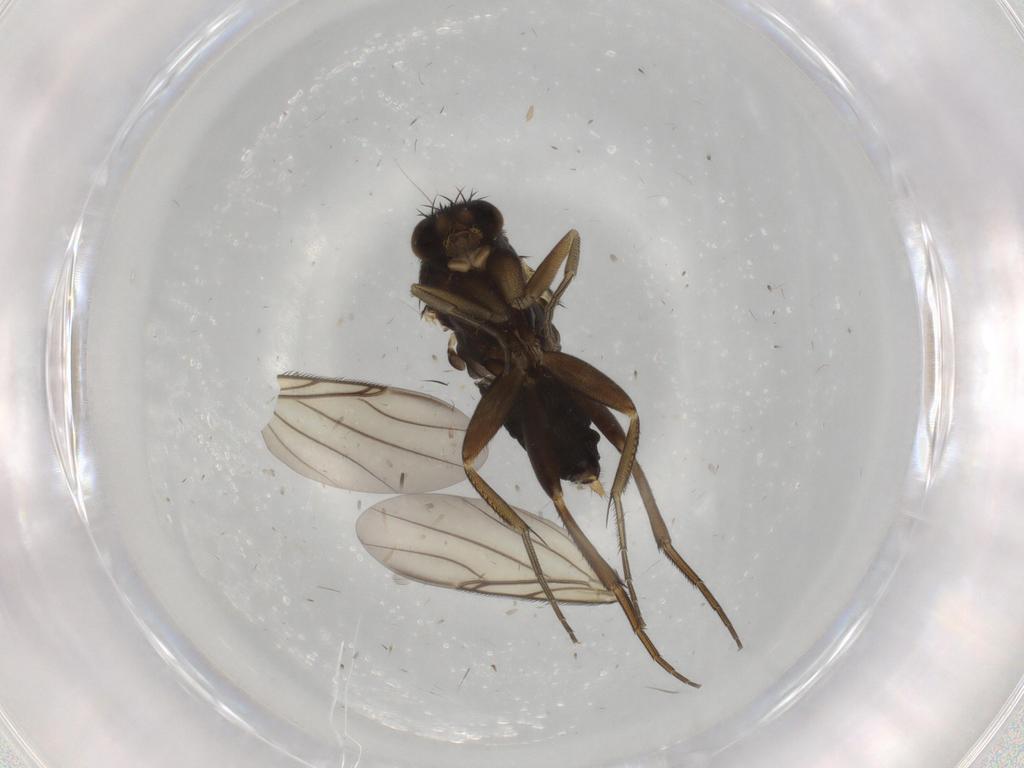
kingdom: Animalia
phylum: Arthropoda
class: Insecta
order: Diptera
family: Phoridae
